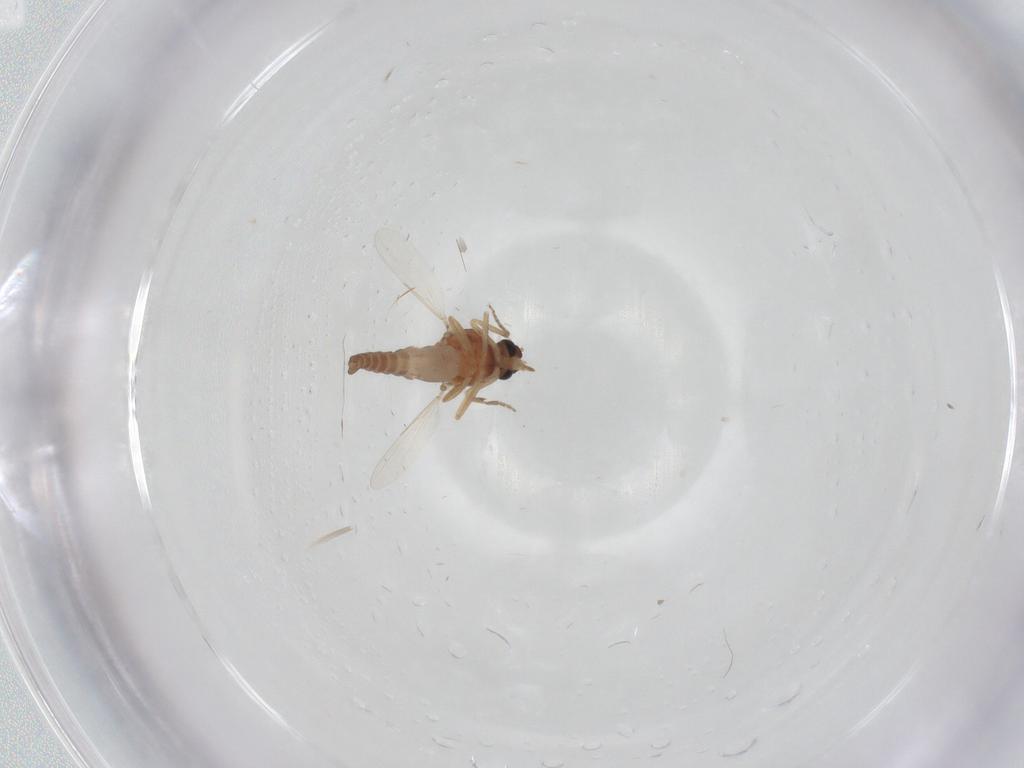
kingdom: Animalia
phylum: Arthropoda
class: Insecta
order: Diptera
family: Ceratopogonidae
